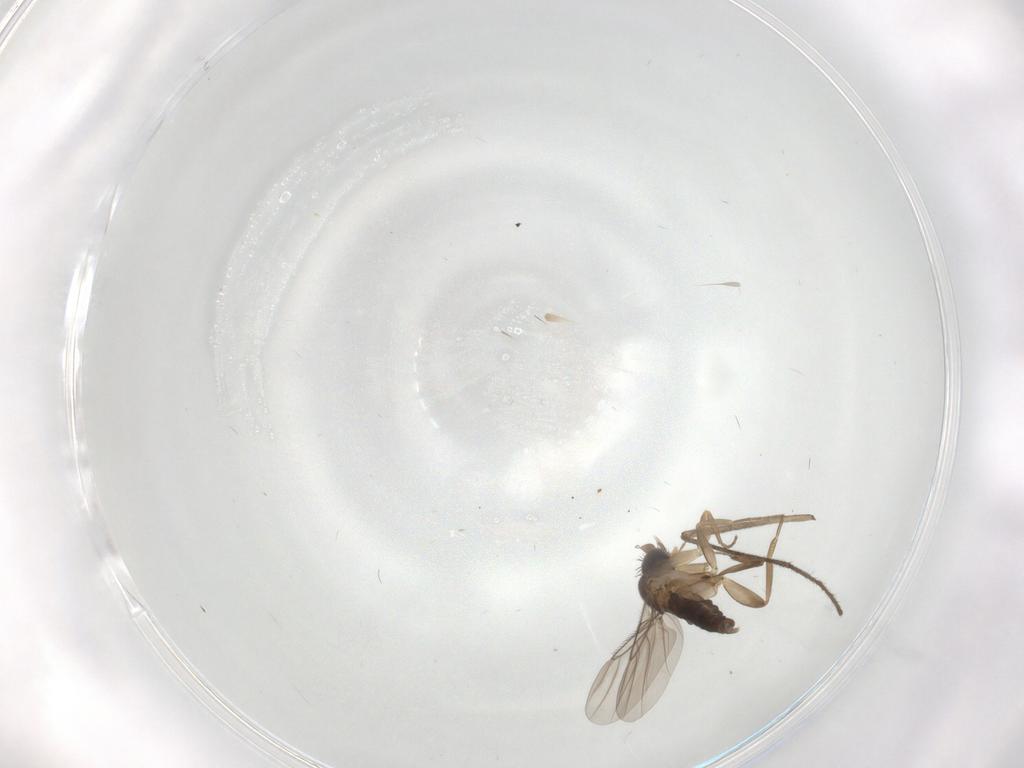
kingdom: Animalia
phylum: Arthropoda
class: Insecta
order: Diptera
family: Phoridae
